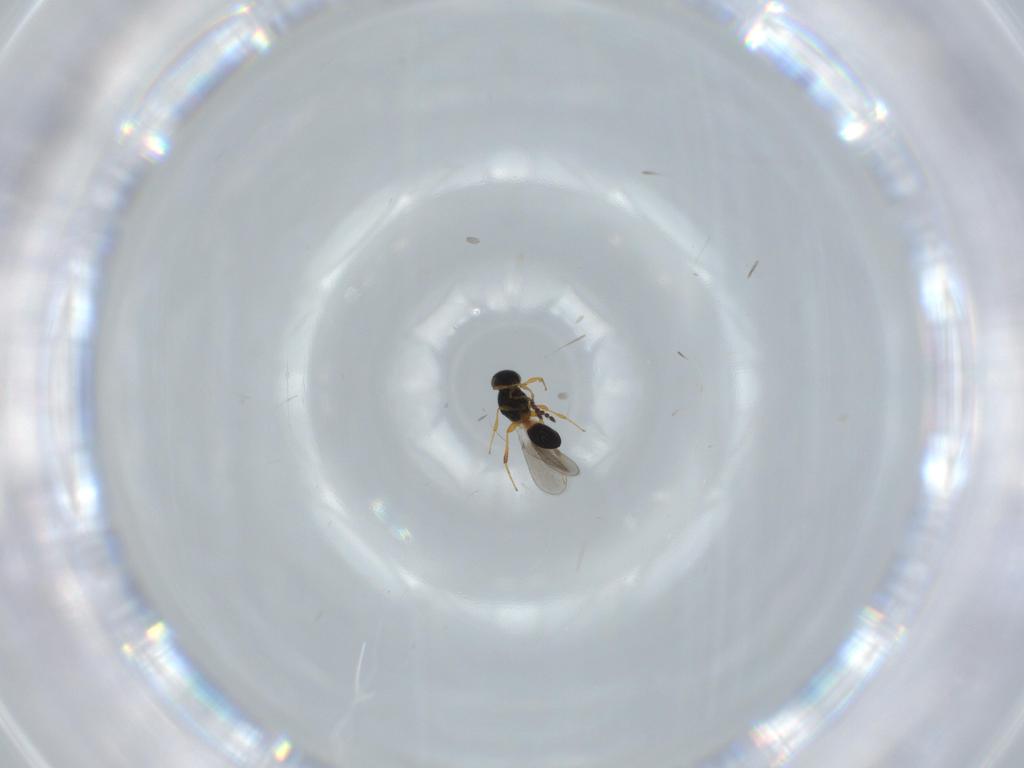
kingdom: Animalia
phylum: Arthropoda
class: Insecta
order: Hymenoptera
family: Platygastridae
